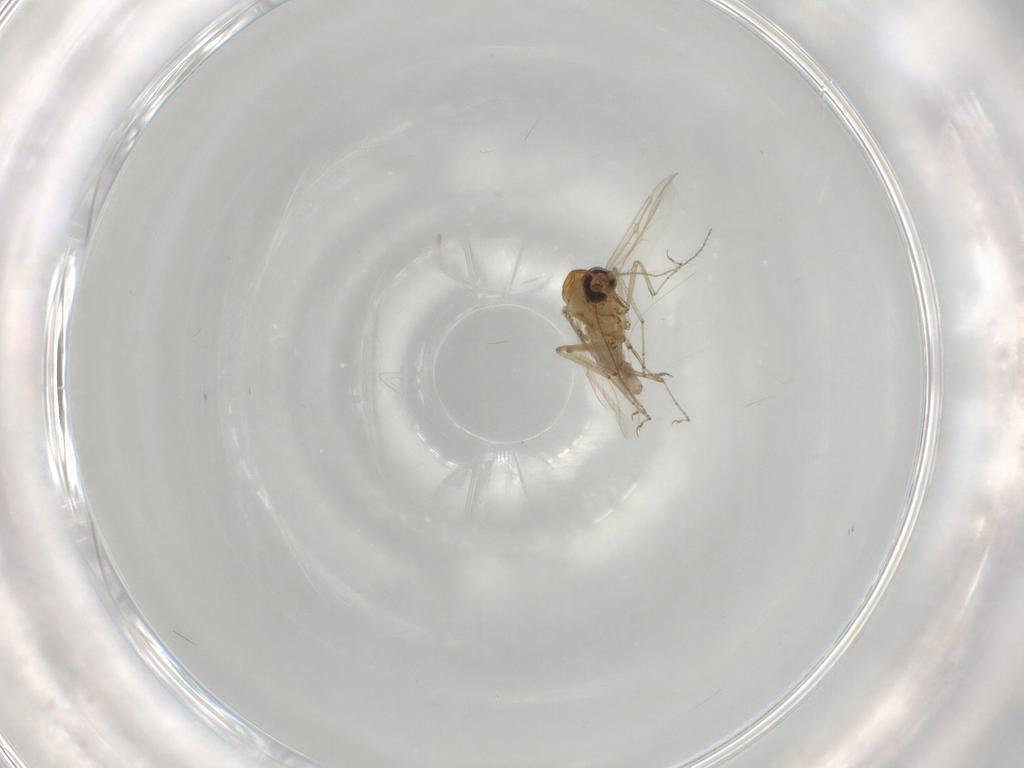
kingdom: Animalia
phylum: Arthropoda
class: Insecta
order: Diptera
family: Ceratopogonidae
